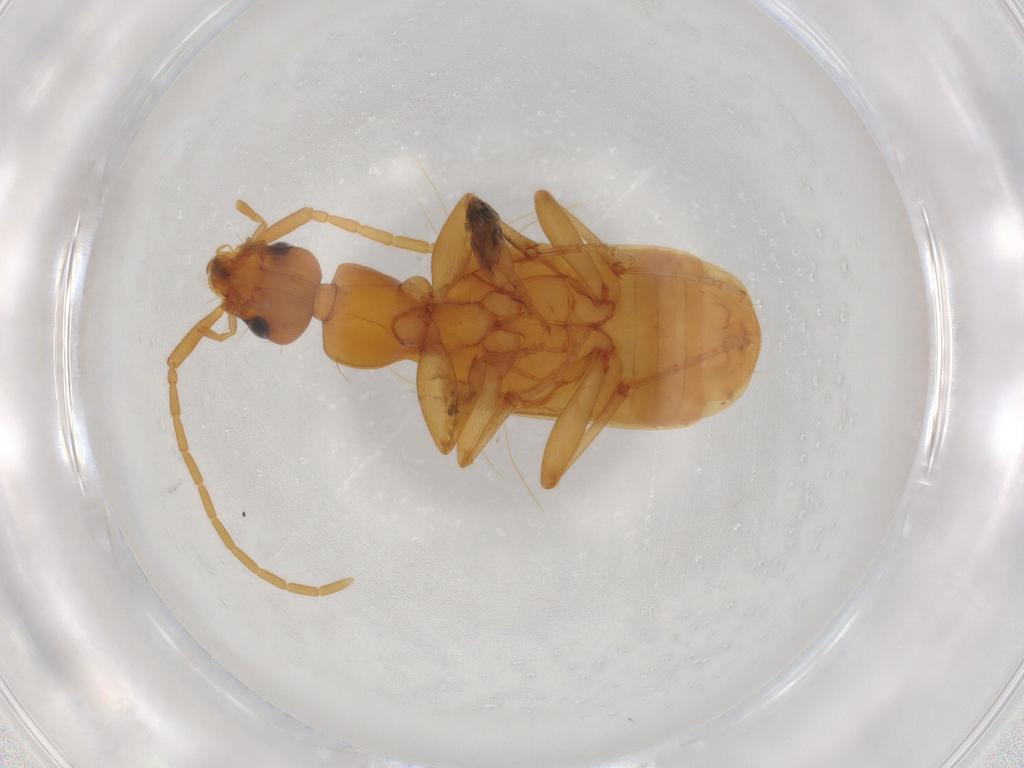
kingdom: Animalia
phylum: Arthropoda
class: Insecta
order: Coleoptera
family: Carabidae
